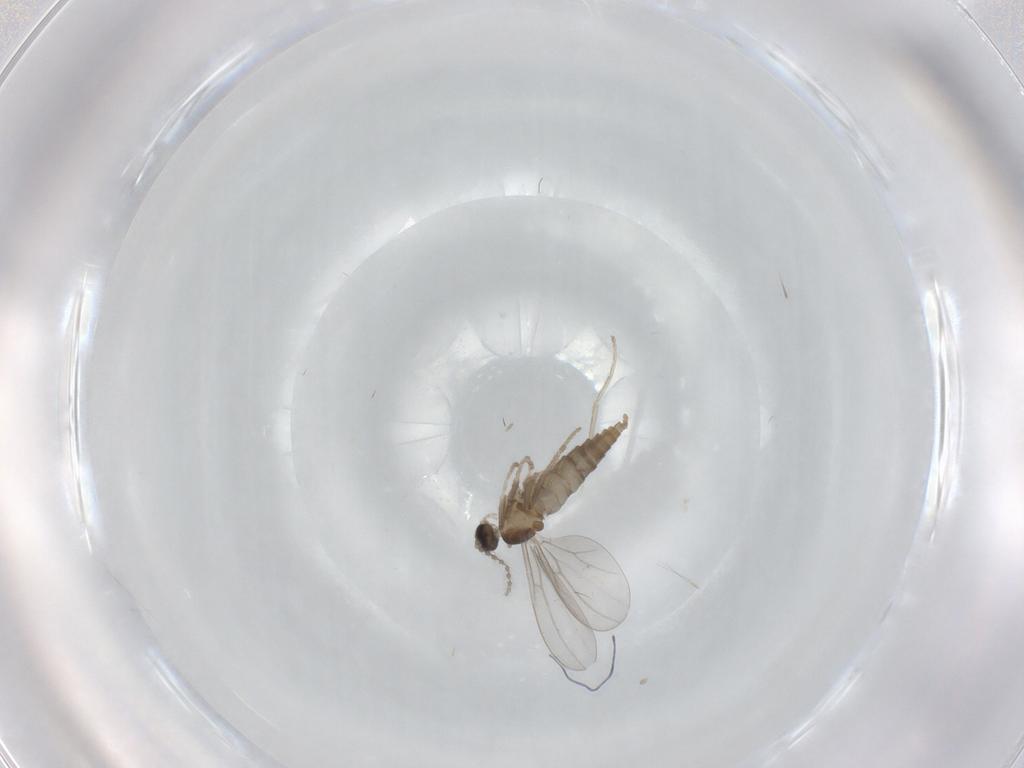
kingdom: Animalia
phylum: Arthropoda
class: Insecta
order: Diptera
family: Cecidomyiidae
